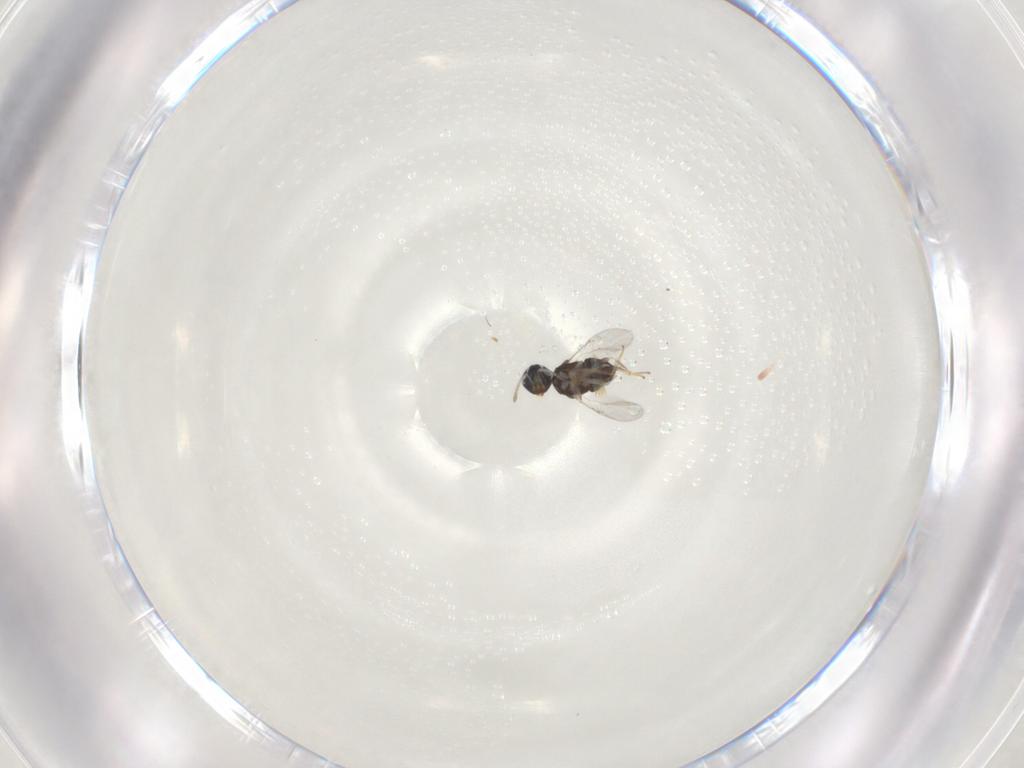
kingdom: Animalia
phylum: Arthropoda
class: Insecta
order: Diptera
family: Cecidomyiidae
